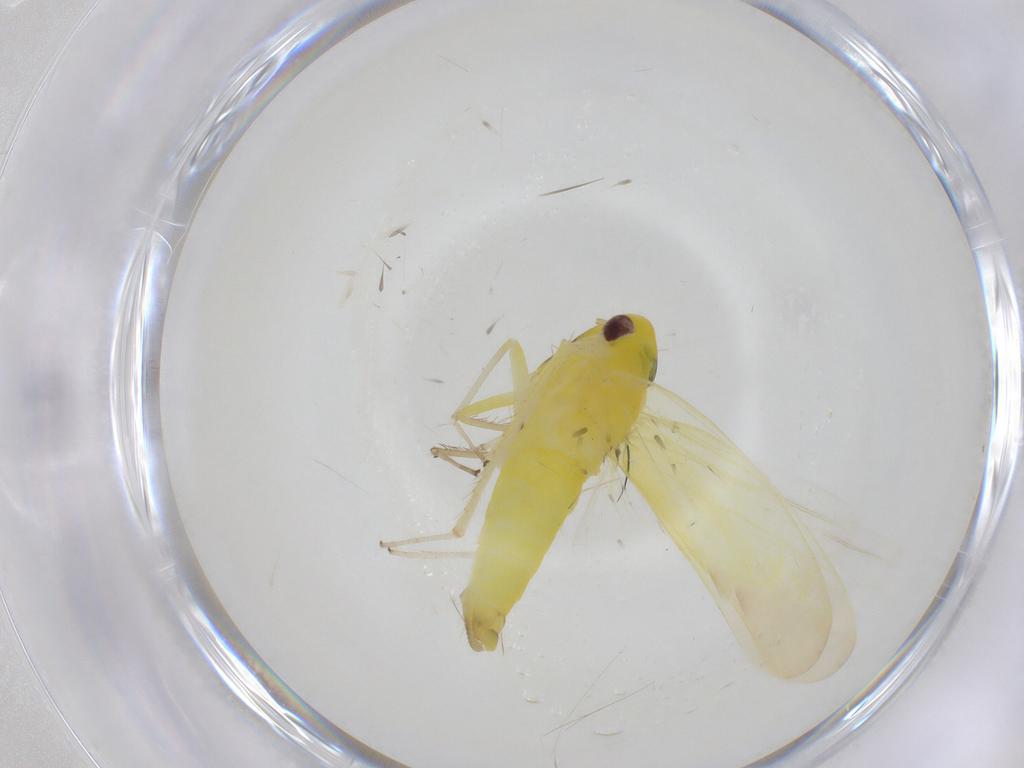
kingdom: Animalia
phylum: Arthropoda
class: Insecta
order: Hemiptera
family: Cicadellidae
